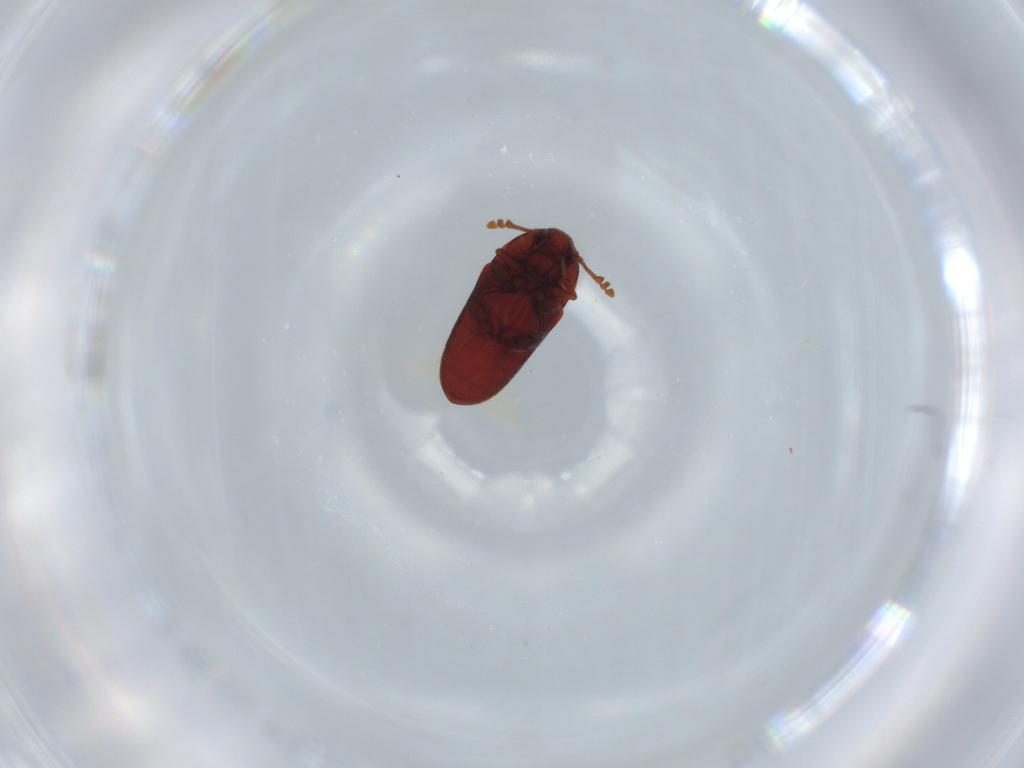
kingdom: Animalia
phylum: Arthropoda
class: Insecta
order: Coleoptera
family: Throscidae
